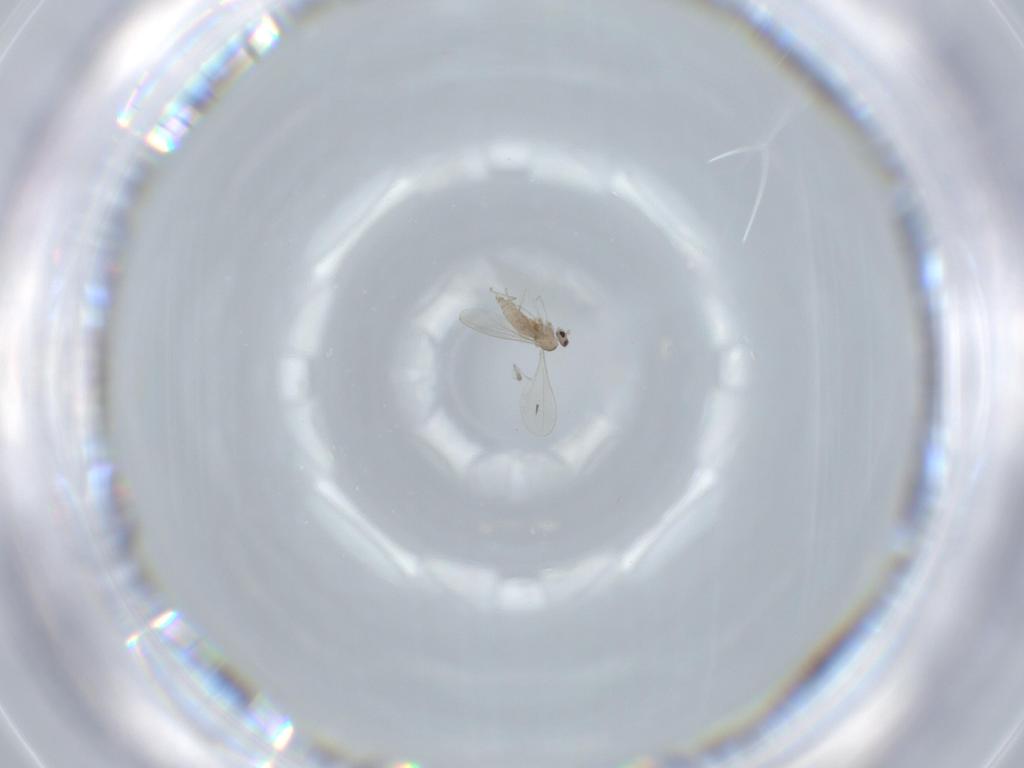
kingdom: Animalia
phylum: Arthropoda
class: Insecta
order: Diptera
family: Cecidomyiidae
